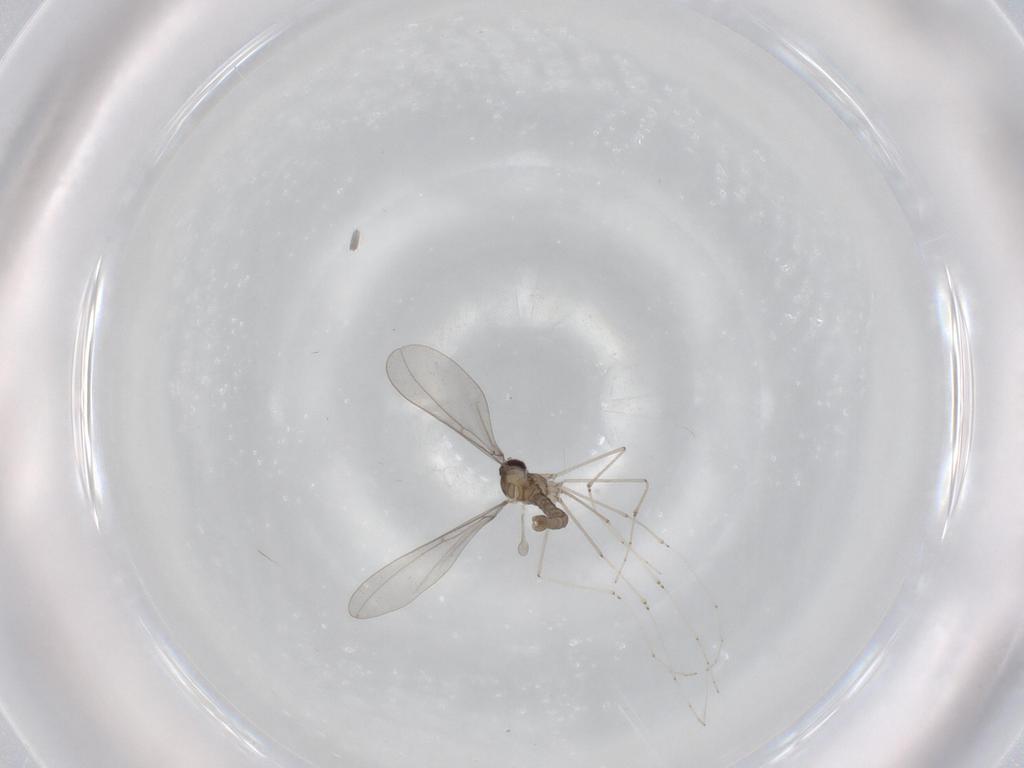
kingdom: Animalia
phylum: Arthropoda
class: Insecta
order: Diptera
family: Cecidomyiidae
